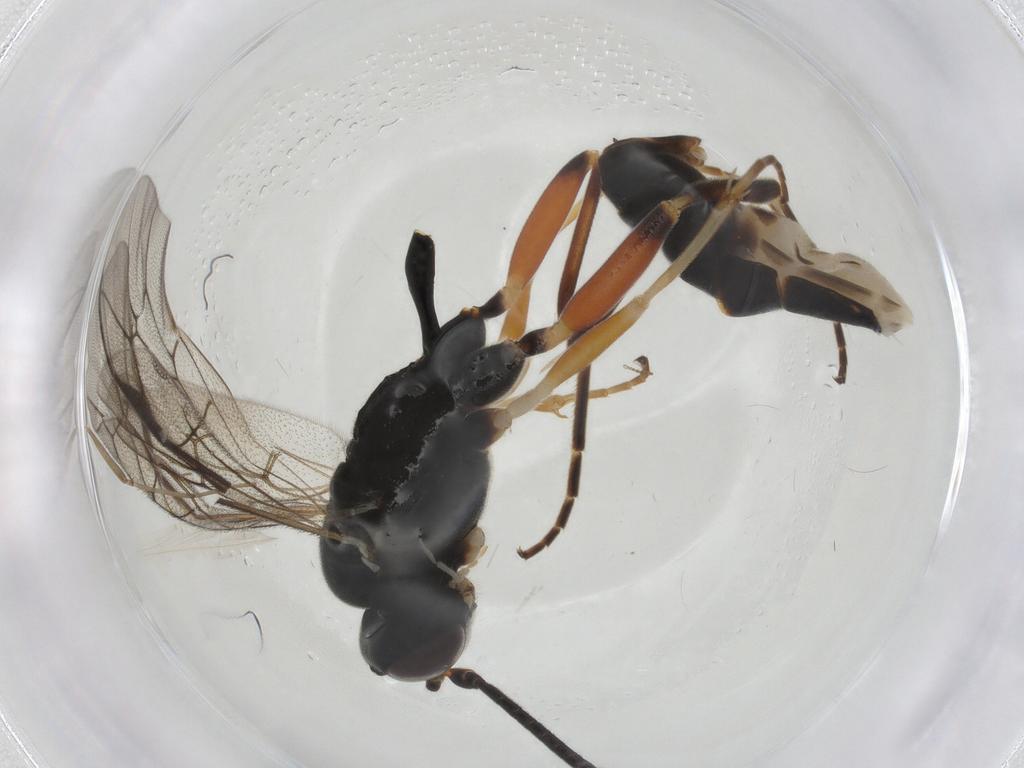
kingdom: Animalia
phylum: Arthropoda
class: Insecta
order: Hymenoptera
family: Ichneumonidae
